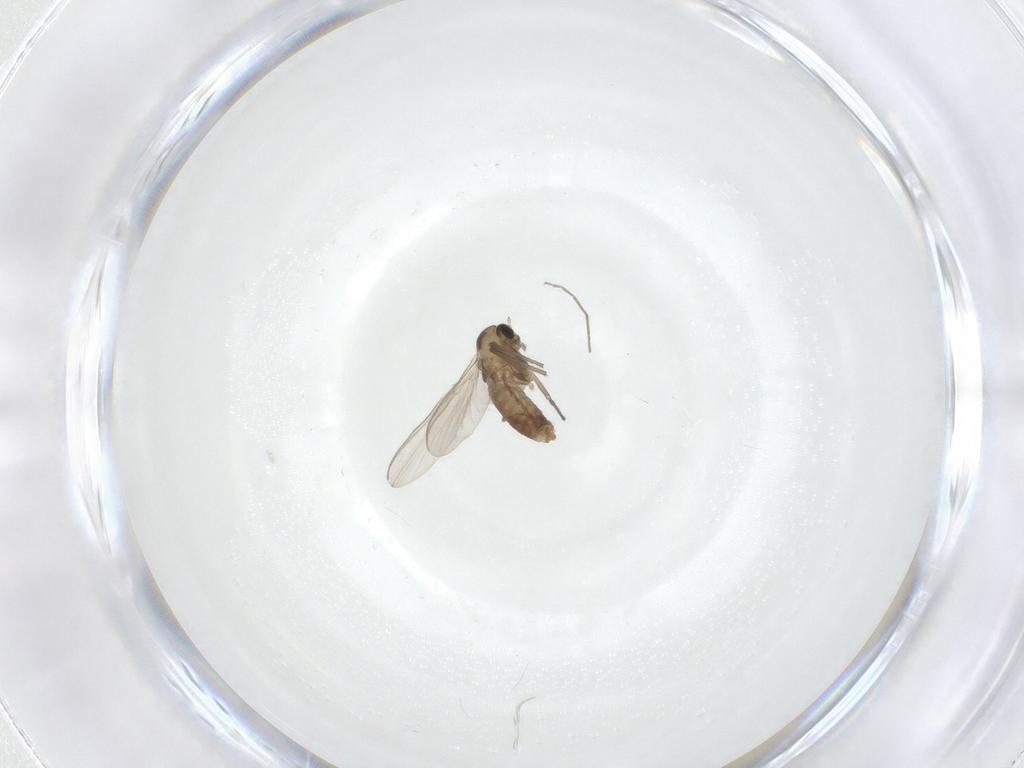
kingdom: Animalia
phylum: Arthropoda
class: Insecta
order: Diptera
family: Chironomidae
